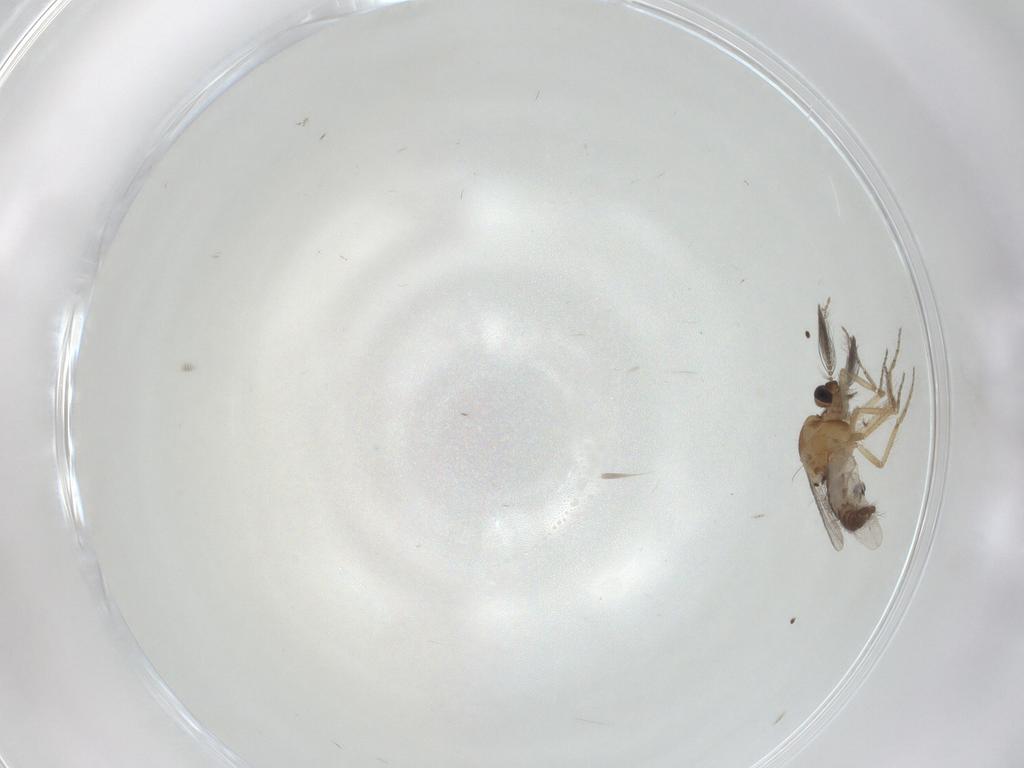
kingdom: Animalia
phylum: Arthropoda
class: Insecta
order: Diptera
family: Ceratopogonidae
